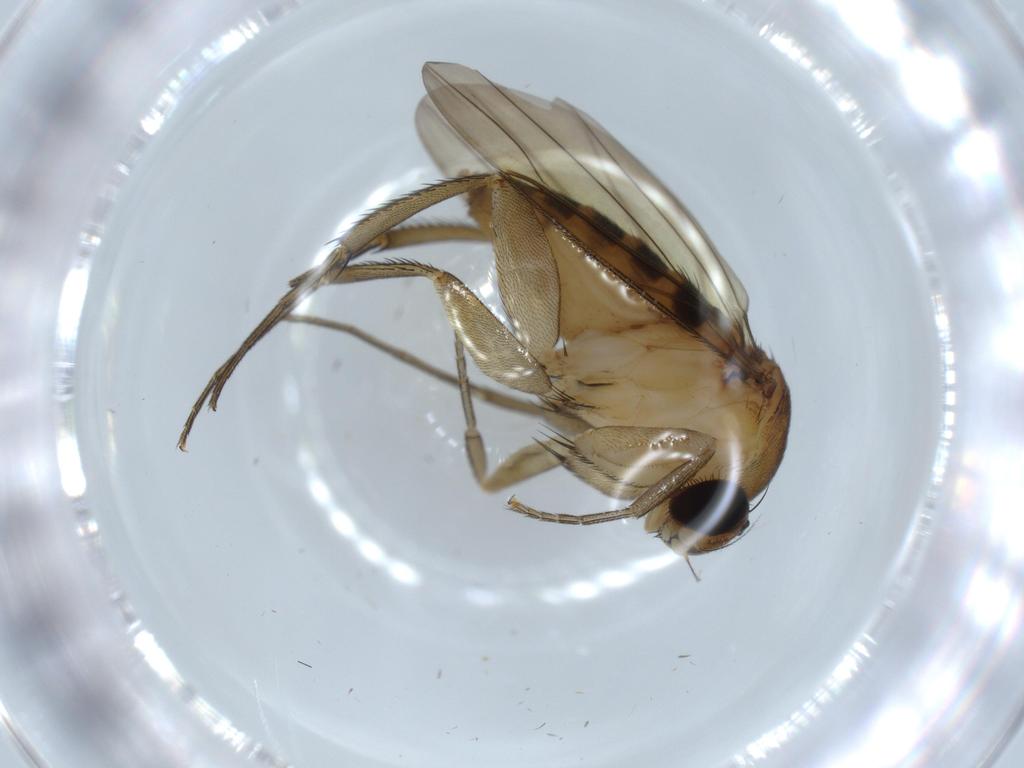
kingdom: Animalia
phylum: Arthropoda
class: Insecta
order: Diptera
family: Phoridae
